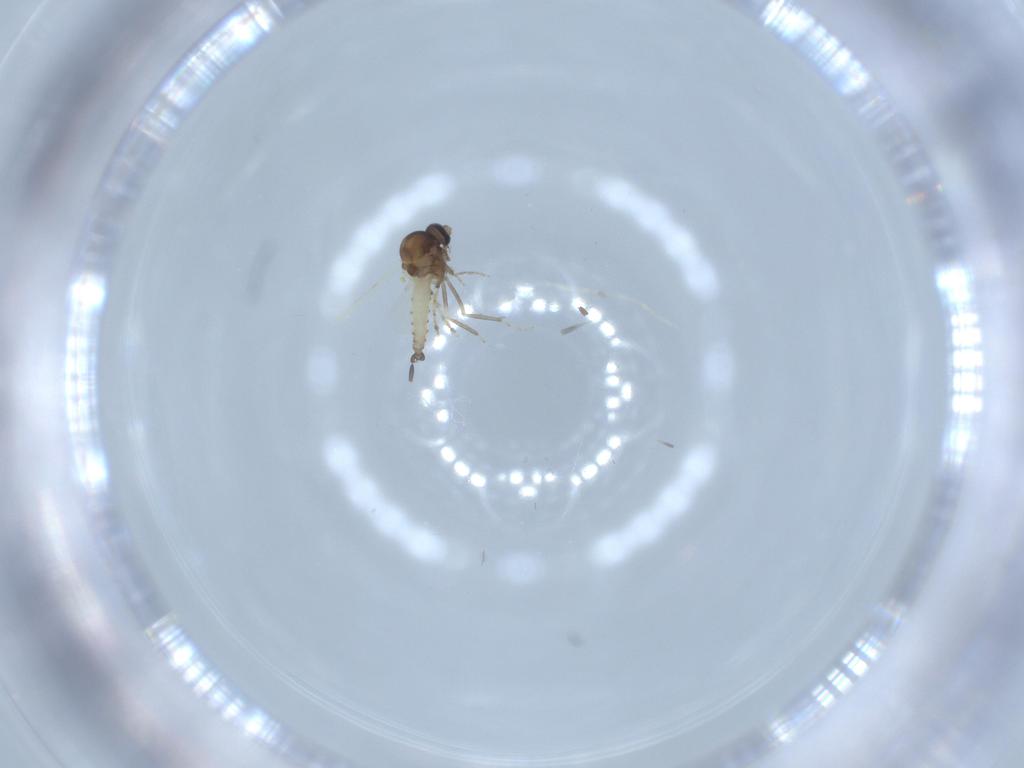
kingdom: Animalia
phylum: Arthropoda
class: Insecta
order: Diptera
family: Ceratopogonidae
